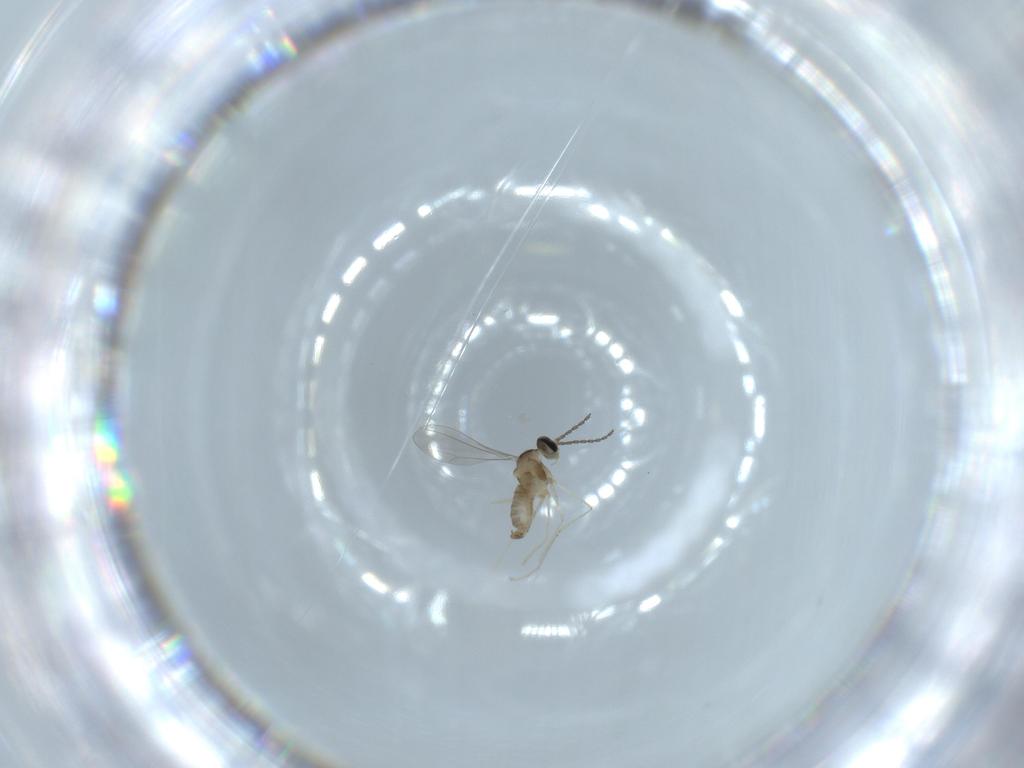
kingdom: Animalia
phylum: Arthropoda
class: Insecta
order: Diptera
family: Cecidomyiidae
